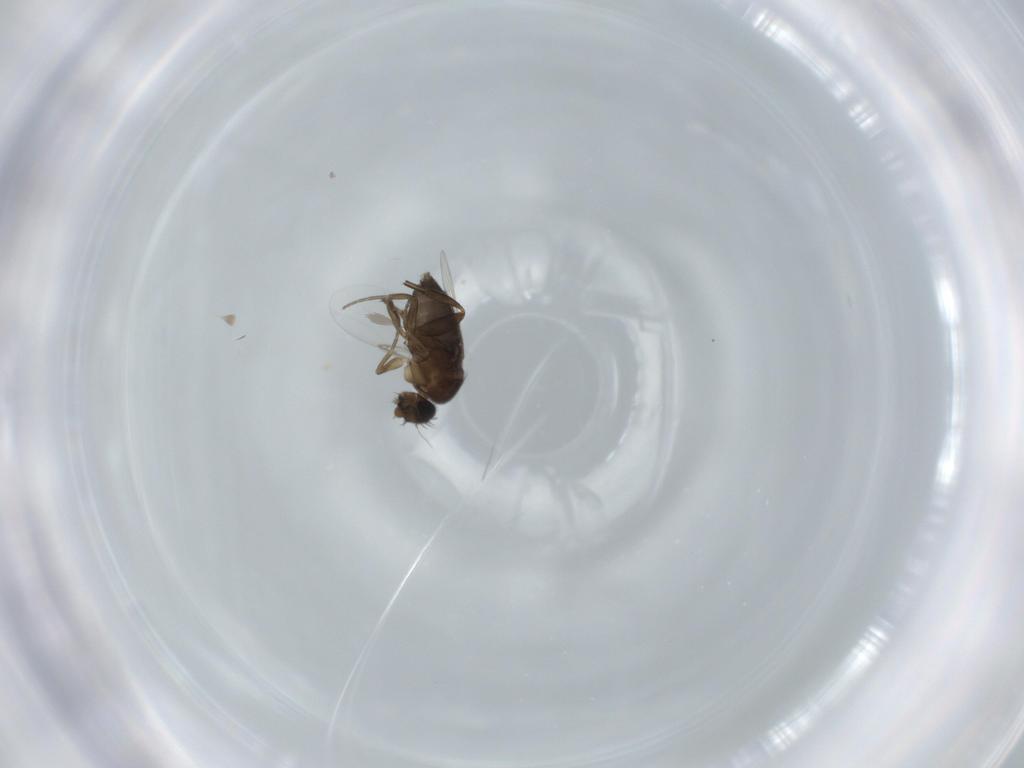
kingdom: Animalia
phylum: Arthropoda
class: Insecta
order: Diptera
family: Phoridae
